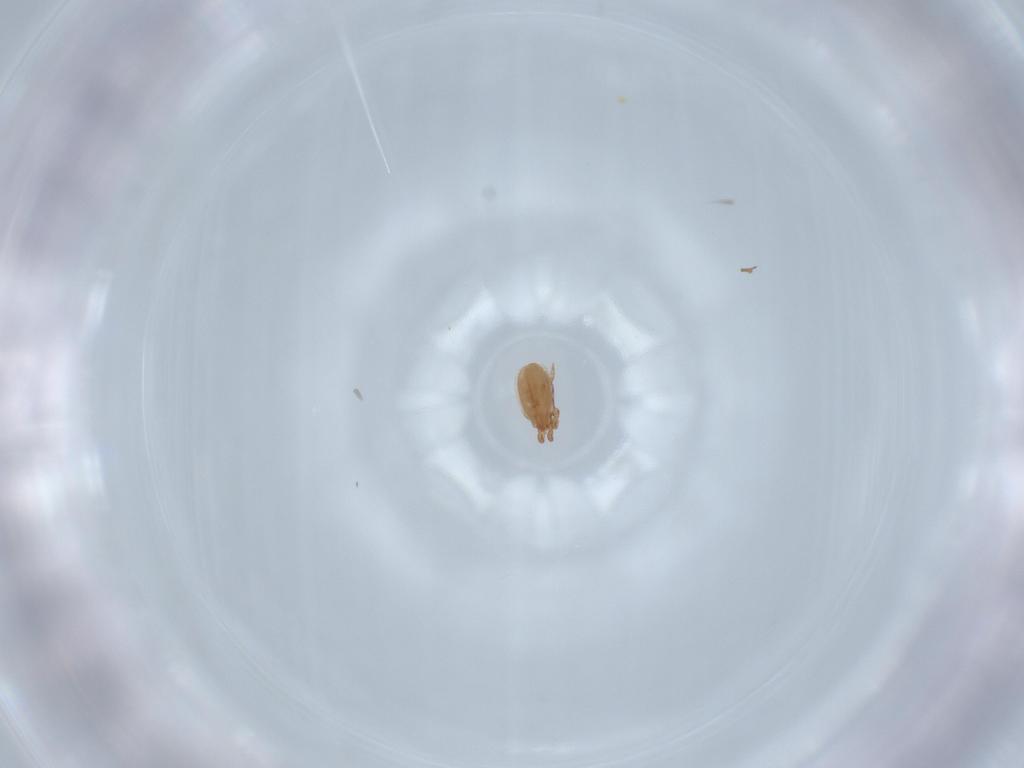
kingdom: Animalia
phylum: Arthropoda
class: Arachnida
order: Mesostigmata
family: Dinychidae
